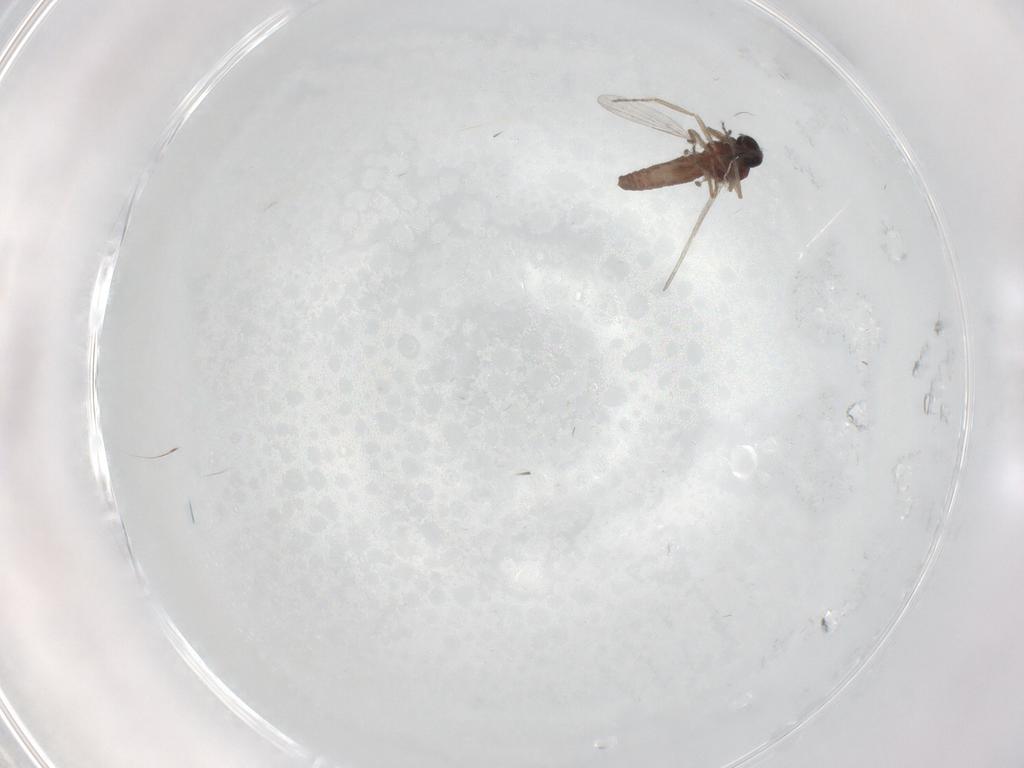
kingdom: Animalia
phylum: Arthropoda
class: Insecta
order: Diptera
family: Ceratopogonidae
